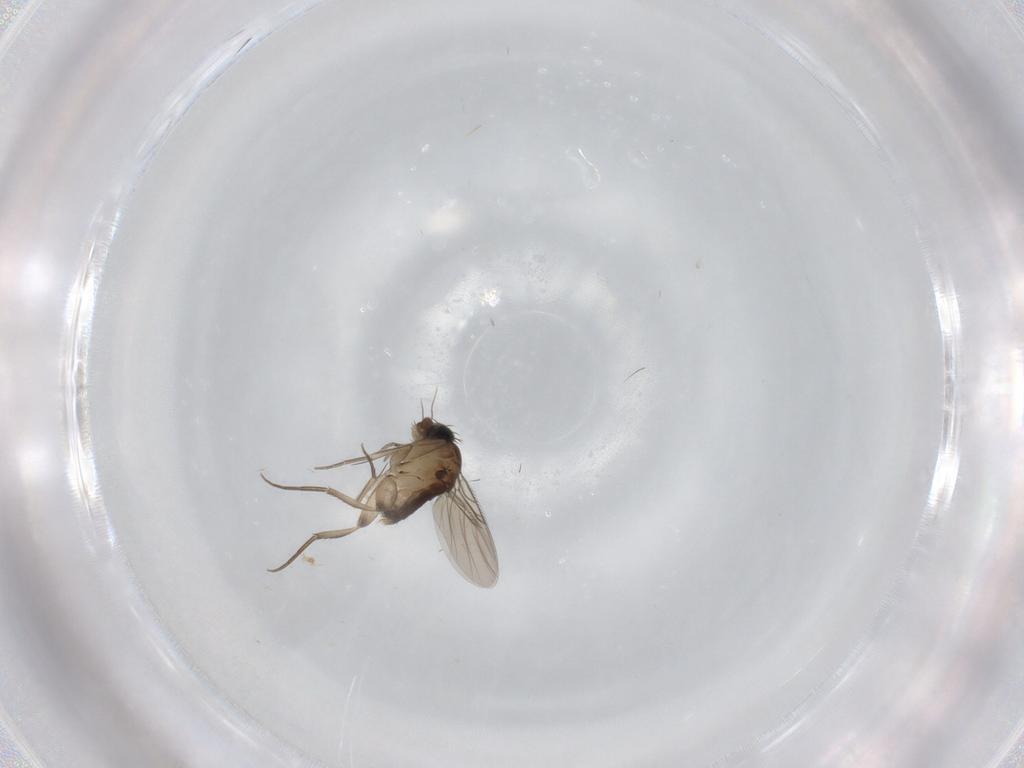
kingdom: Animalia
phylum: Arthropoda
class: Insecta
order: Diptera
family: Phoridae
